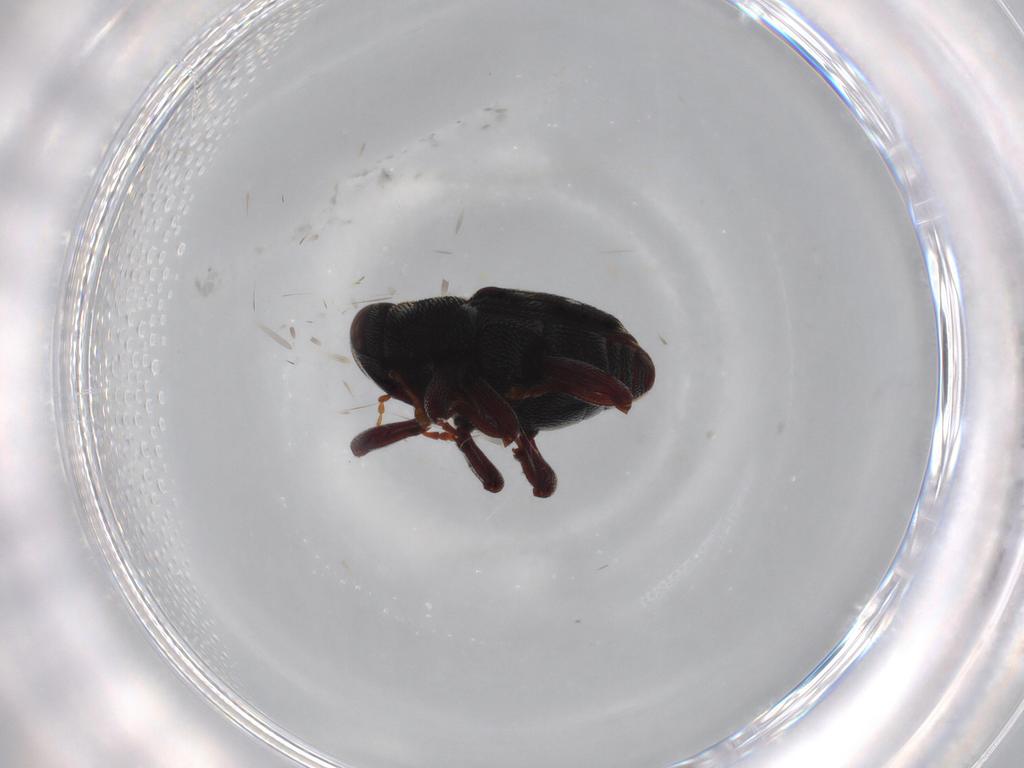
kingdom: Animalia
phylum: Arthropoda
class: Insecta
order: Coleoptera
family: Curculionidae
